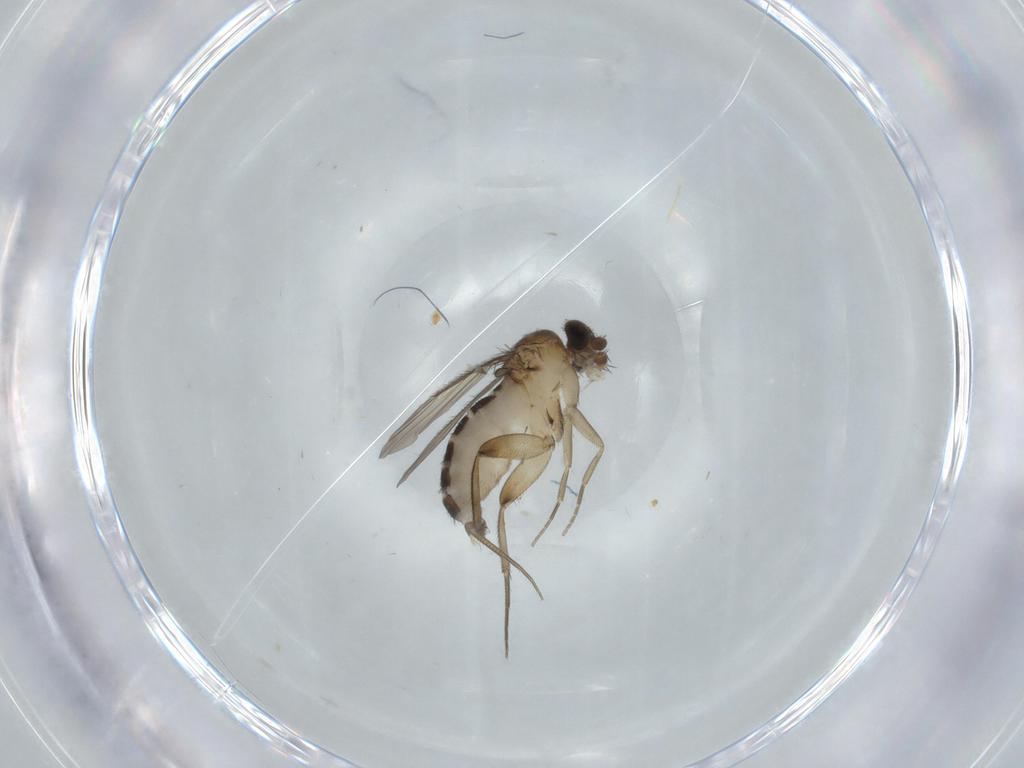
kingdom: Animalia
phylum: Arthropoda
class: Insecta
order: Diptera
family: Phoridae
